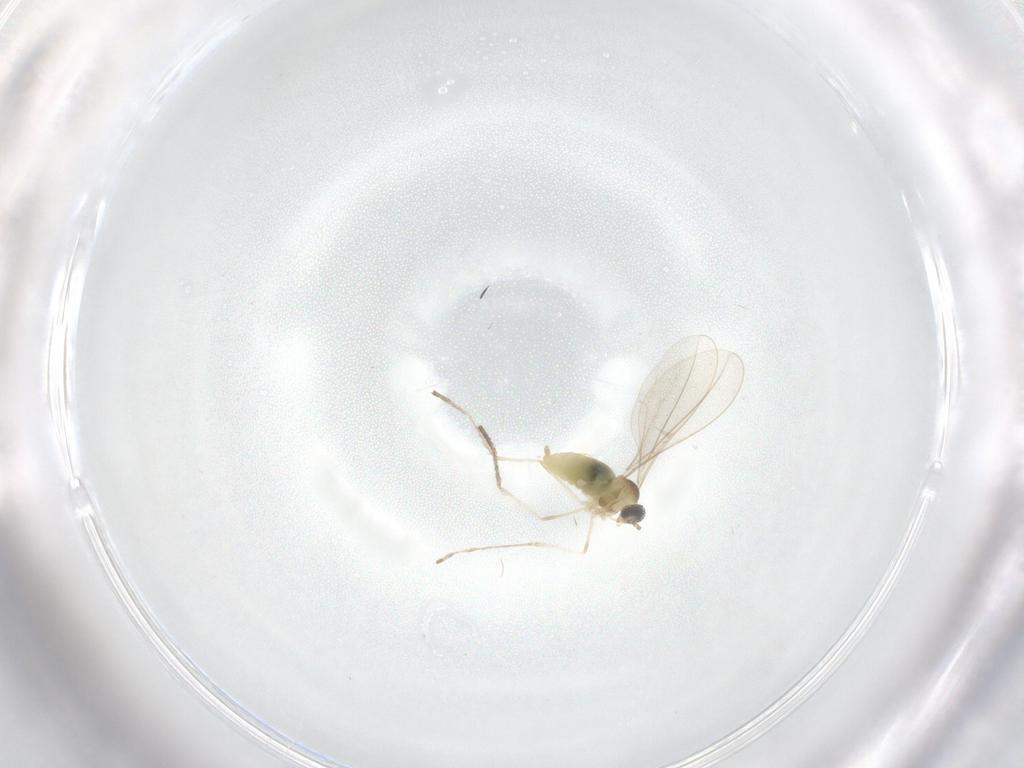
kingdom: Animalia
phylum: Arthropoda
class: Insecta
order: Diptera
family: Cecidomyiidae
